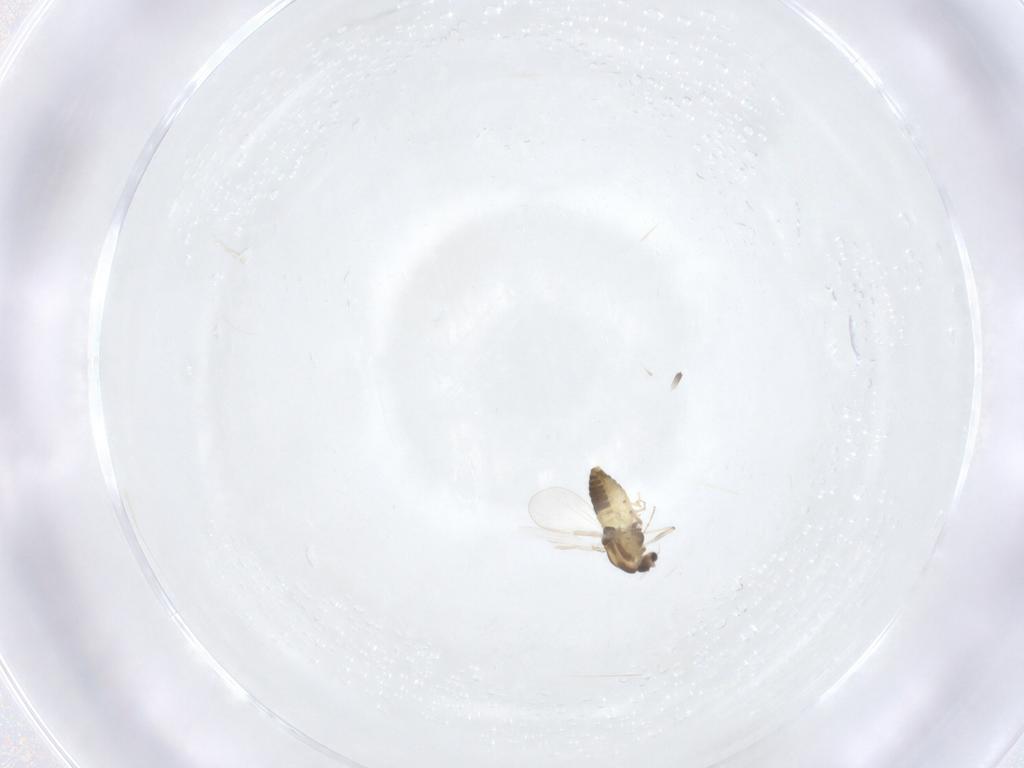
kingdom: Animalia
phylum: Arthropoda
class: Insecta
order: Diptera
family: Chironomidae
